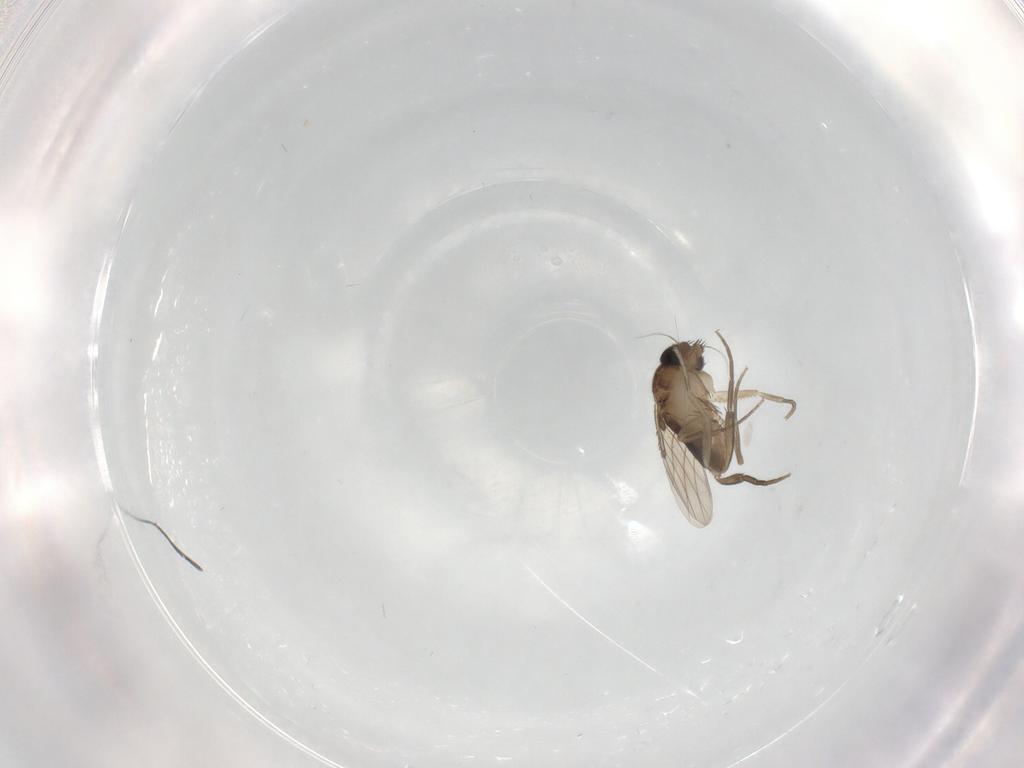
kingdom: Animalia
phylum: Arthropoda
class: Insecta
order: Diptera
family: Phoridae
